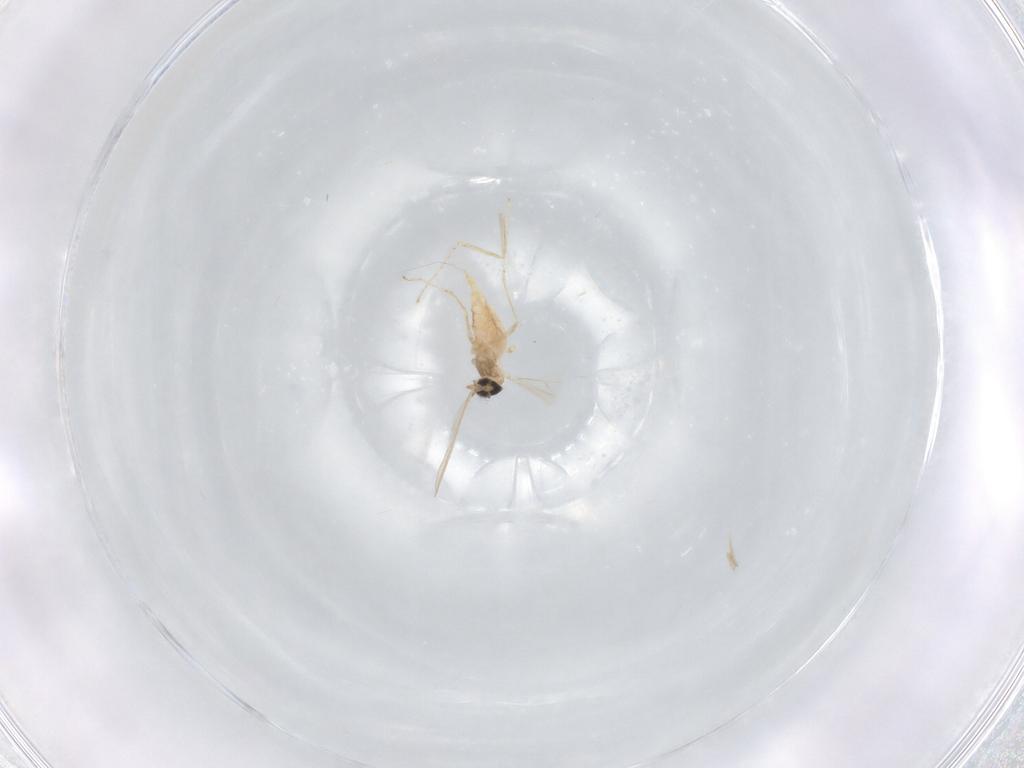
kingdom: Animalia
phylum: Arthropoda
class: Insecta
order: Diptera
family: Cecidomyiidae
